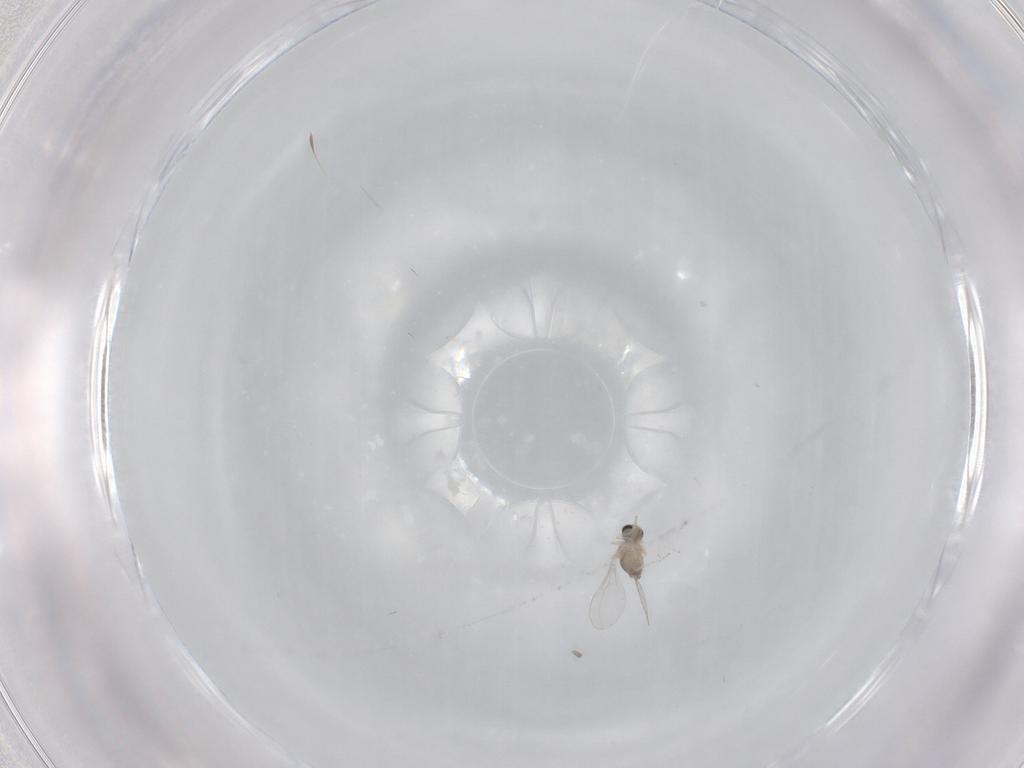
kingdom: Animalia
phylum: Arthropoda
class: Insecta
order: Diptera
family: Cecidomyiidae
